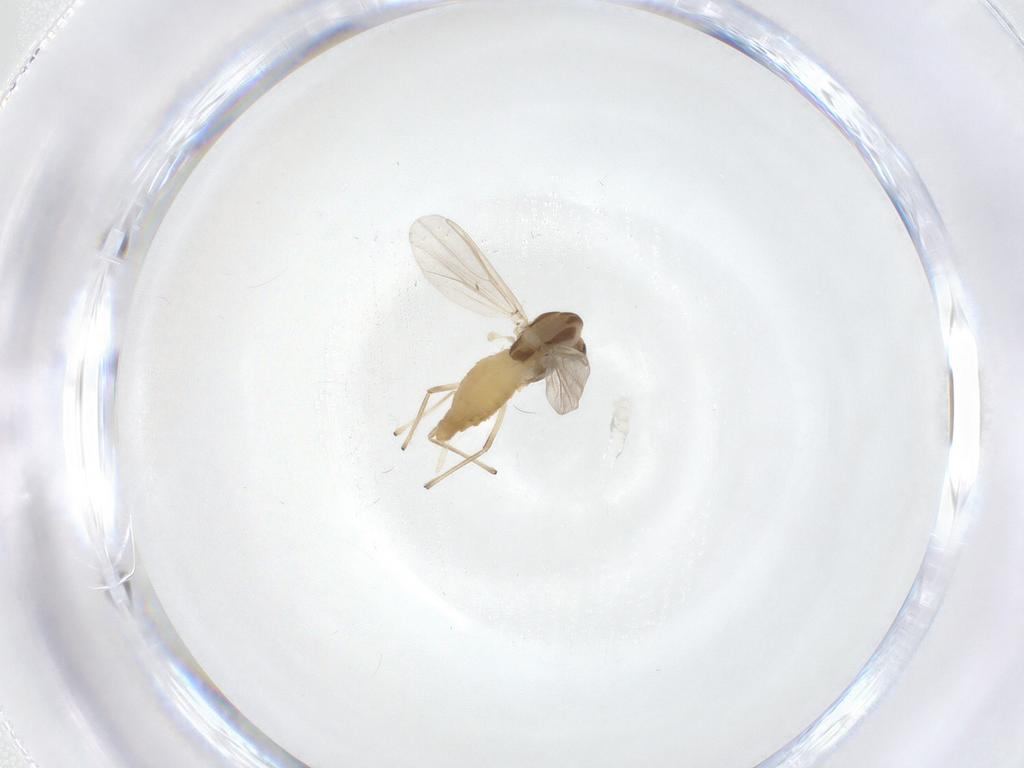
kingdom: Animalia
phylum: Arthropoda
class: Insecta
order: Diptera
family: Chironomidae
